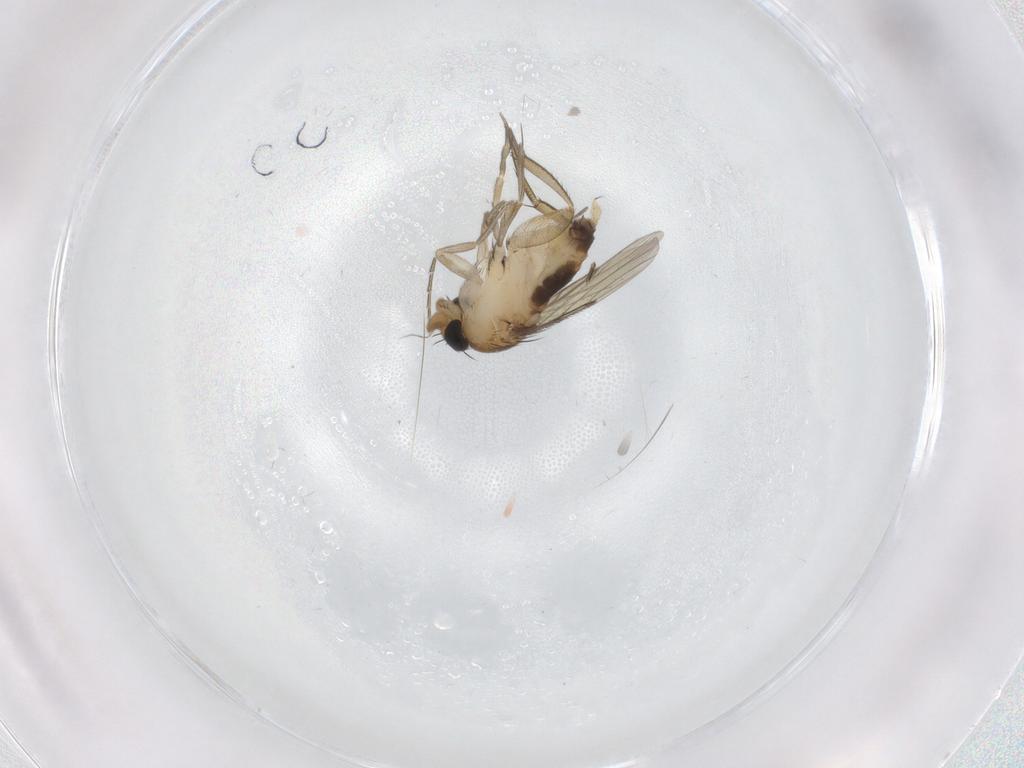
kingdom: Animalia
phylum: Arthropoda
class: Insecta
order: Diptera
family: Phoridae
